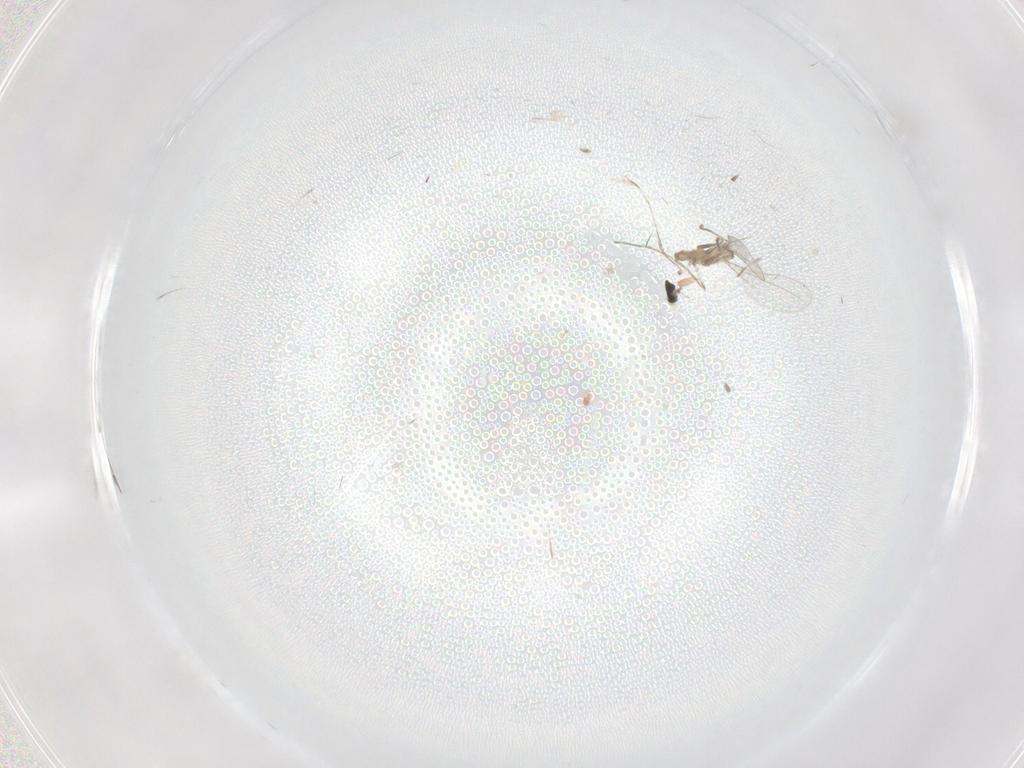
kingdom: Animalia
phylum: Arthropoda
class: Insecta
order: Diptera
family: Cecidomyiidae
